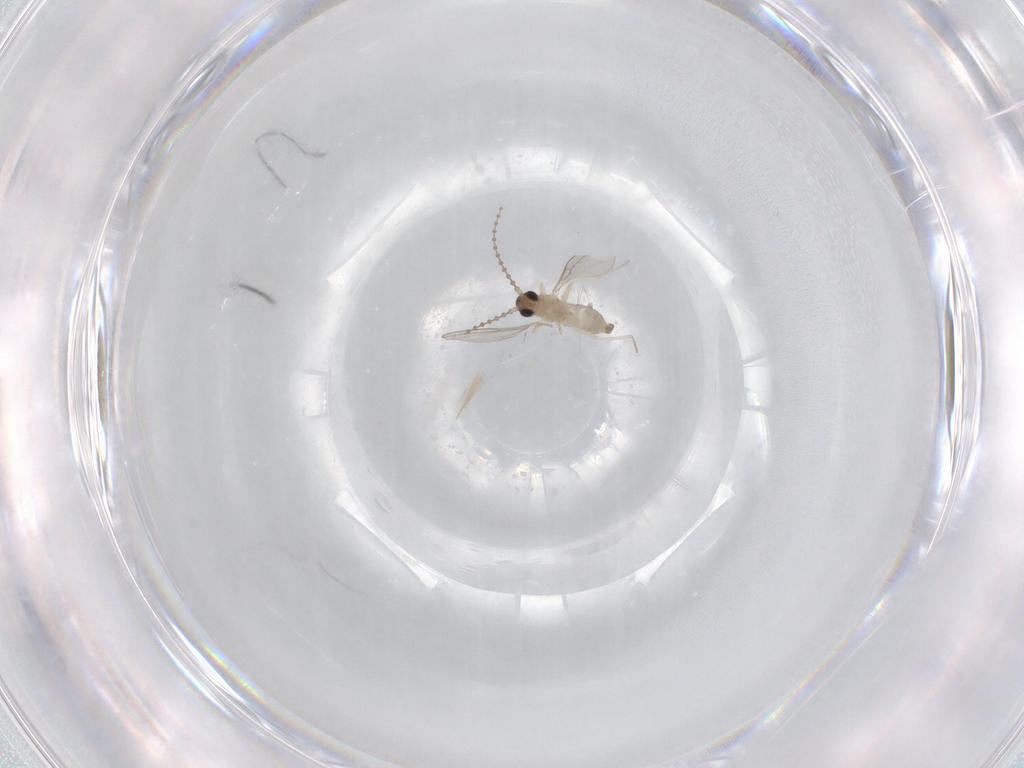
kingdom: Animalia
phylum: Arthropoda
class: Insecta
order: Diptera
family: Cecidomyiidae
